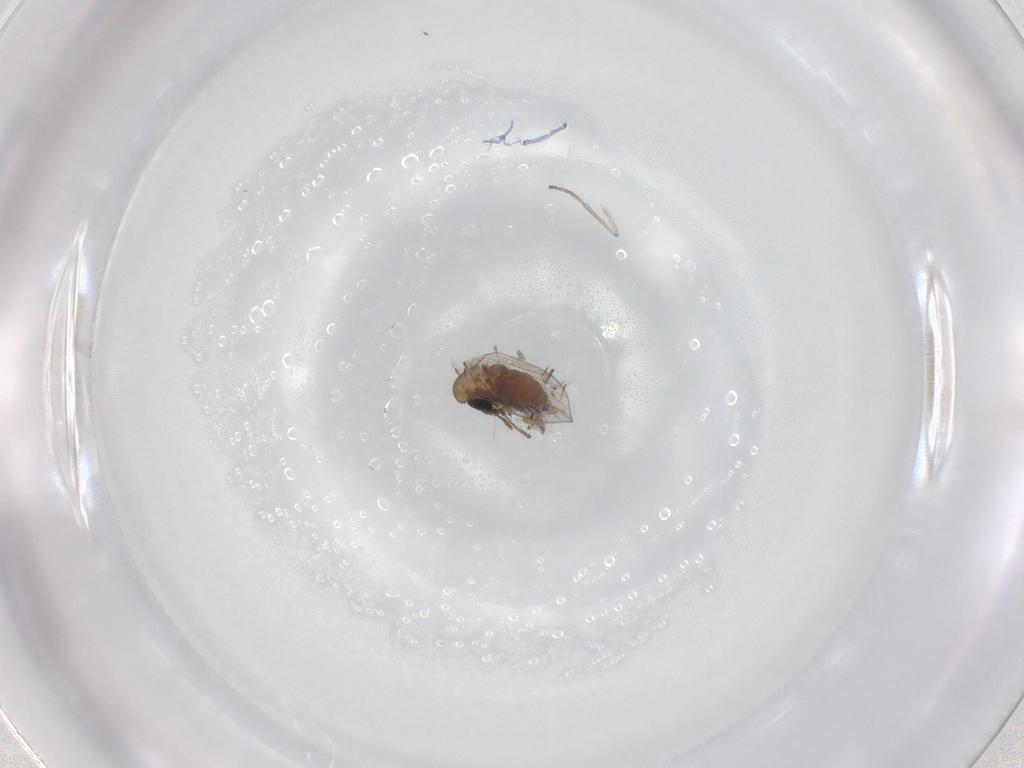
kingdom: Animalia
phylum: Arthropoda
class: Insecta
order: Diptera
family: Psychodidae
